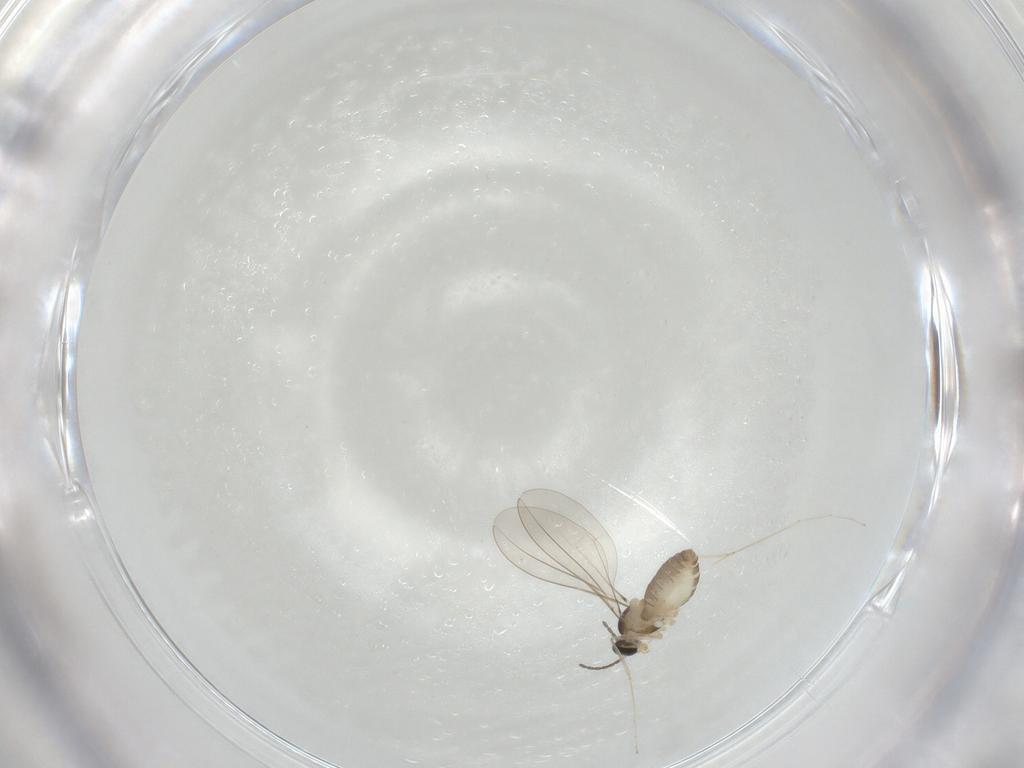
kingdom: Animalia
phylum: Arthropoda
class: Insecta
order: Diptera
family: Cecidomyiidae
